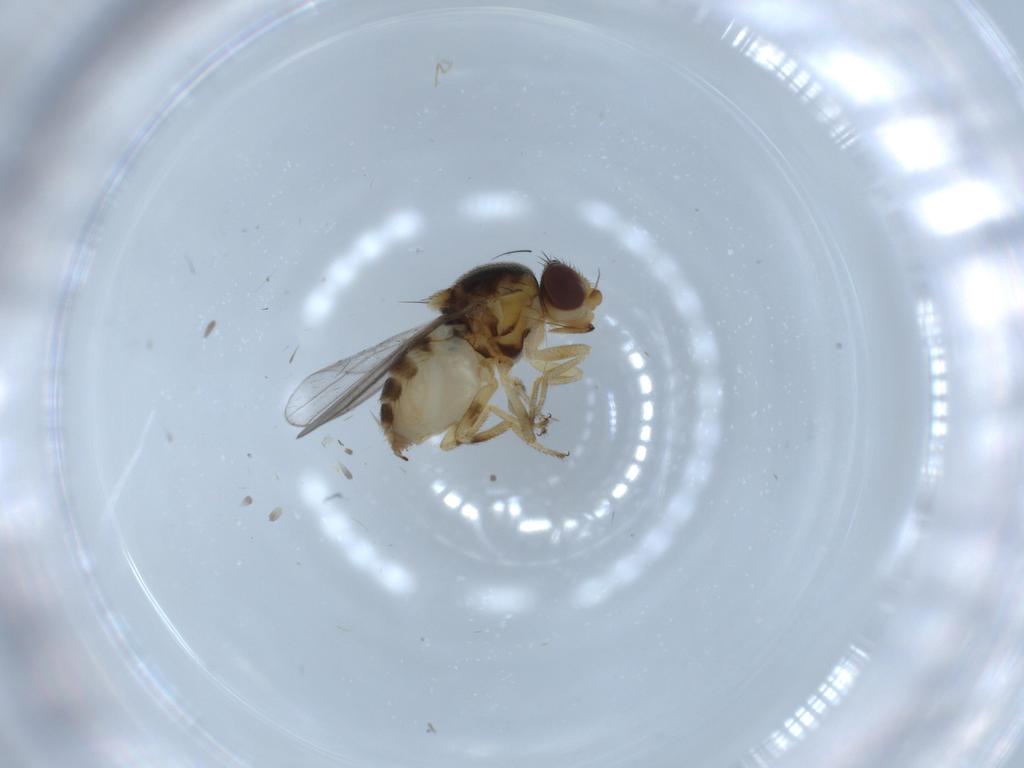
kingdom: Animalia
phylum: Arthropoda
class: Insecta
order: Diptera
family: Chloropidae
